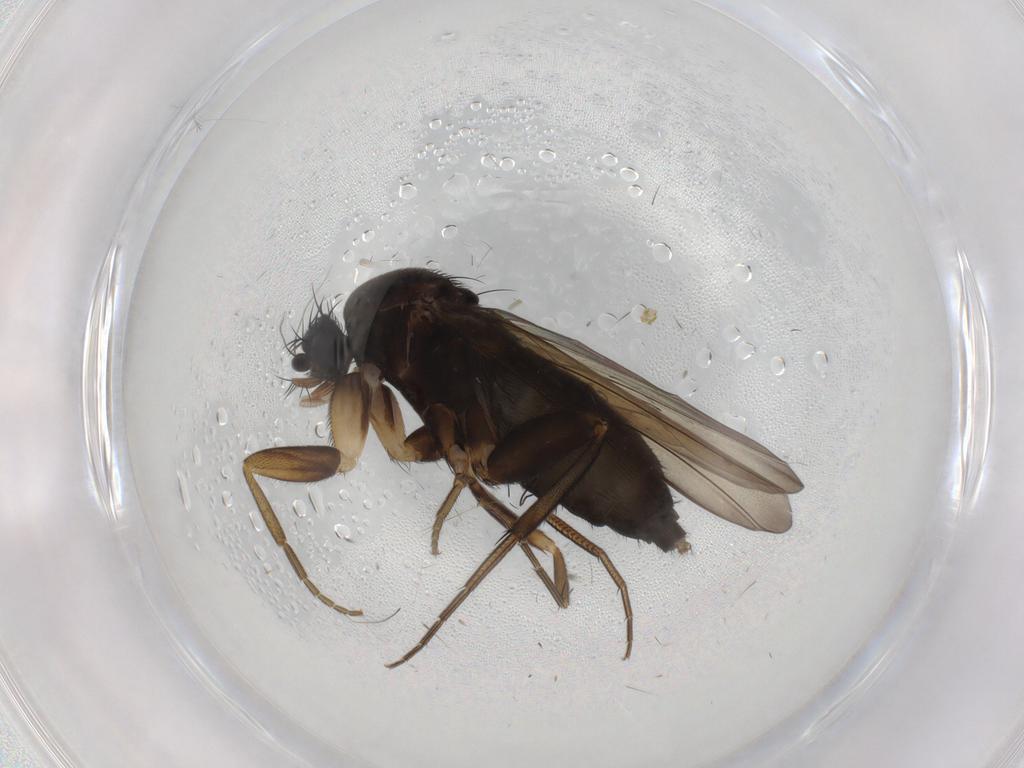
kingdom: Animalia
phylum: Arthropoda
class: Insecta
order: Diptera
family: Phoridae
